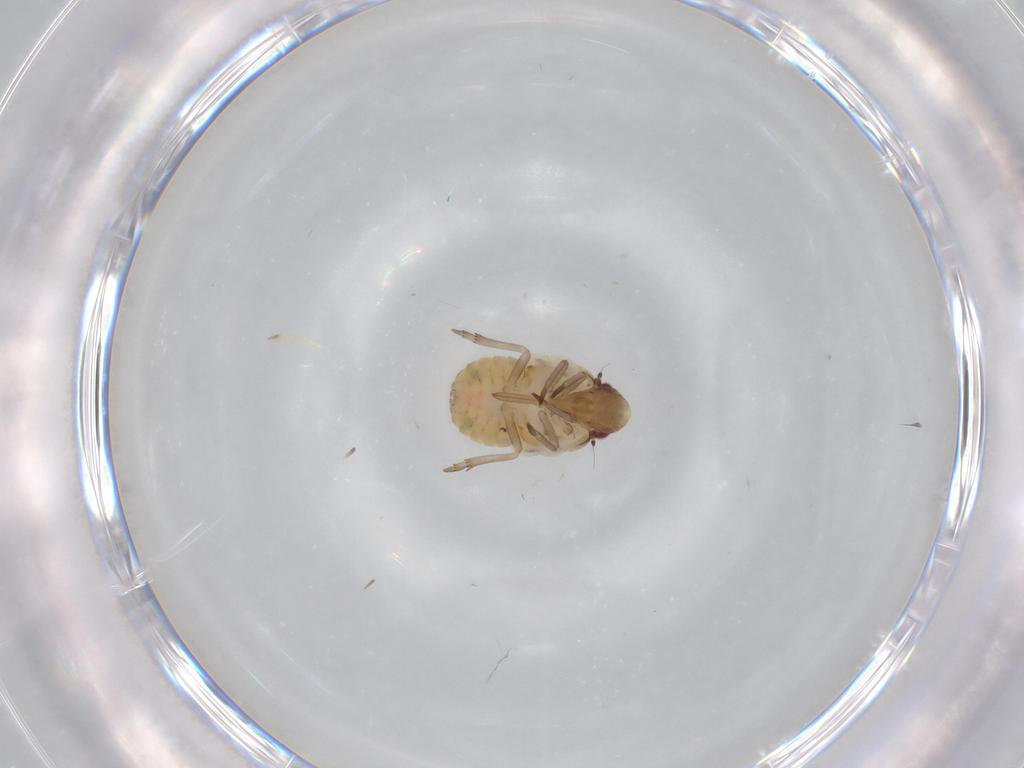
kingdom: Animalia
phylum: Arthropoda
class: Insecta
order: Hemiptera
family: Flatidae
